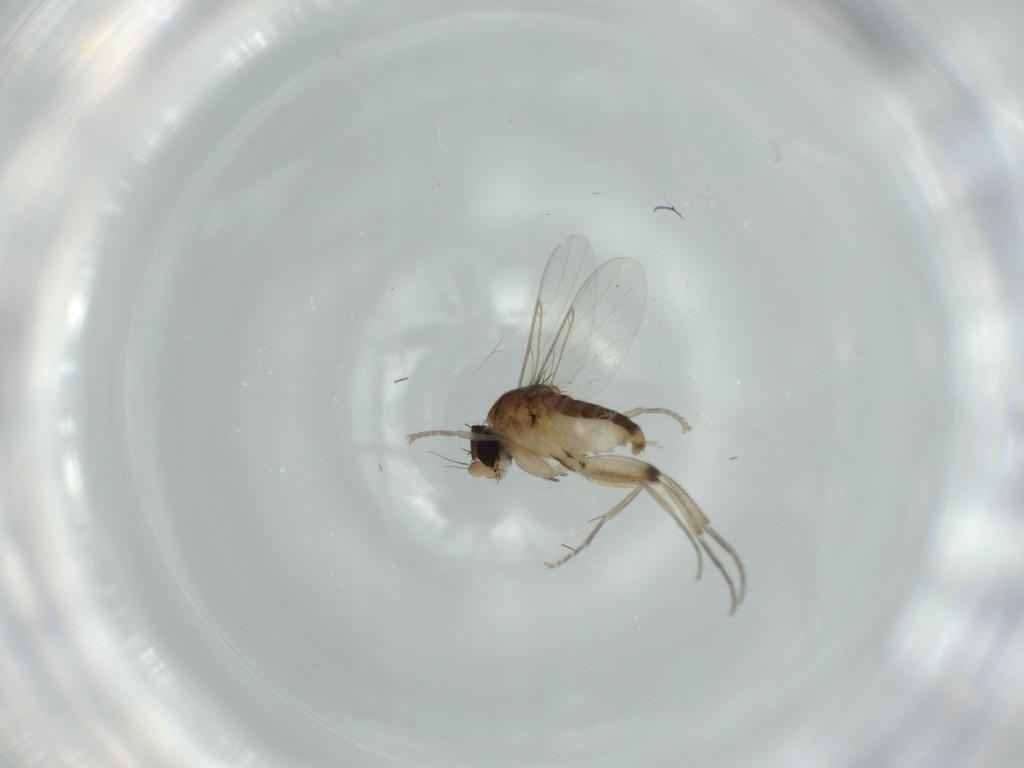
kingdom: Animalia
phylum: Arthropoda
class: Insecta
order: Diptera
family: Phoridae
